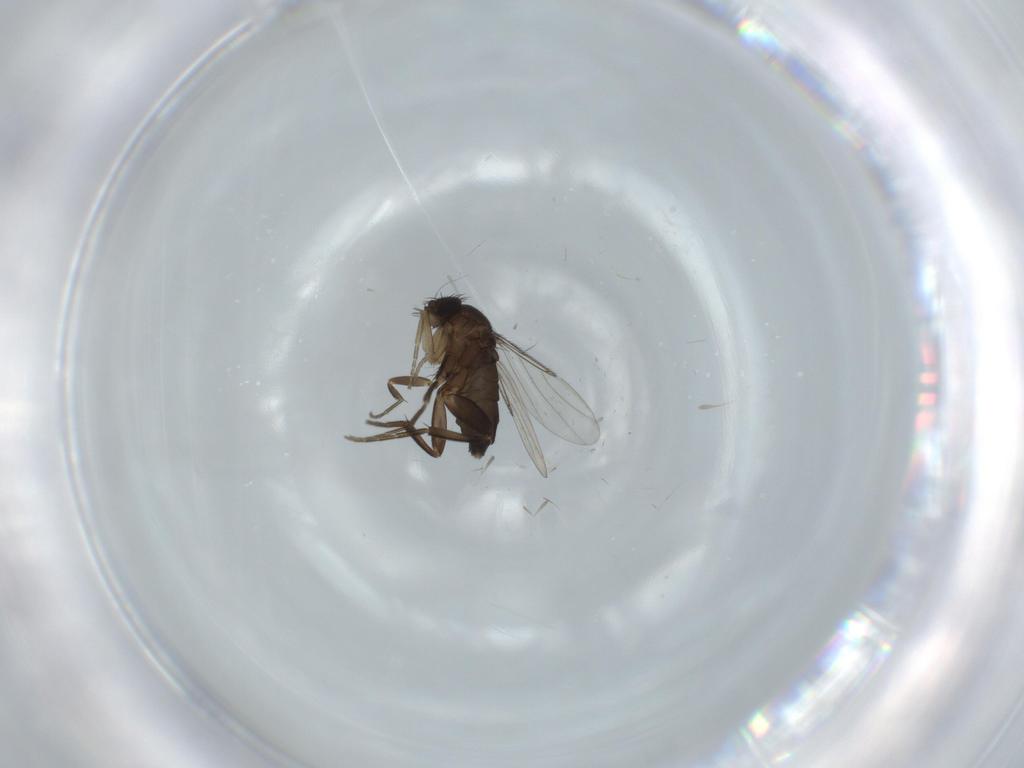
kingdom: Animalia
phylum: Arthropoda
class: Insecta
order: Diptera
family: Phoridae
